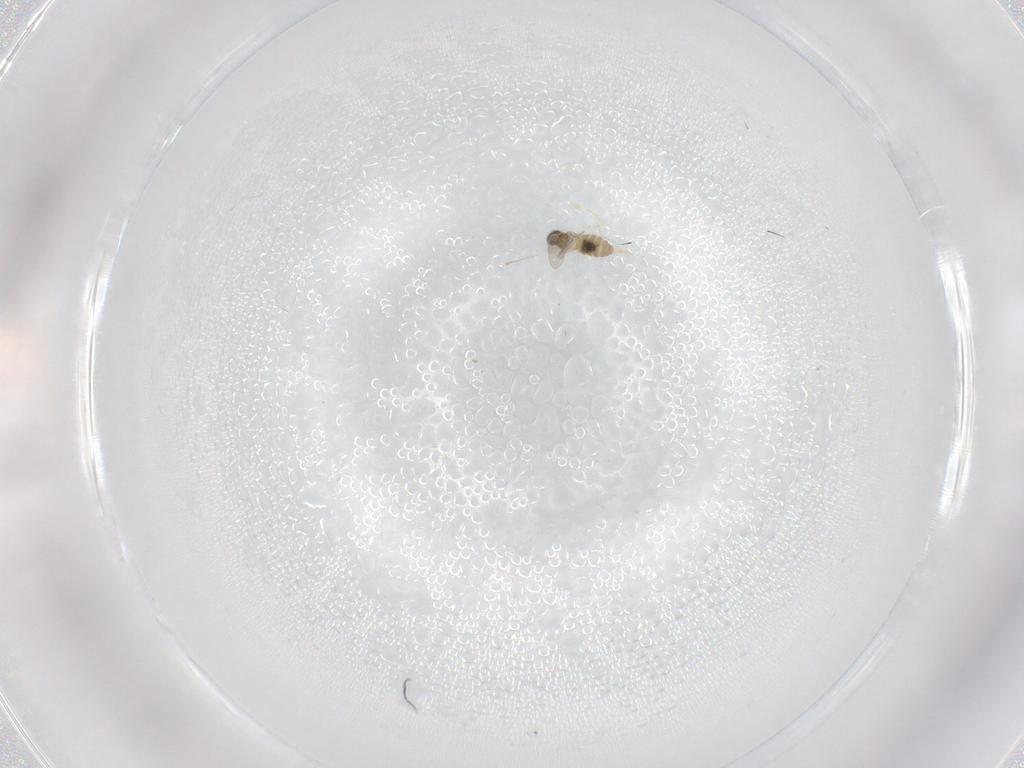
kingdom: Animalia
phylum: Arthropoda
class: Insecta
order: Diptera
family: Cecidomyiidae
